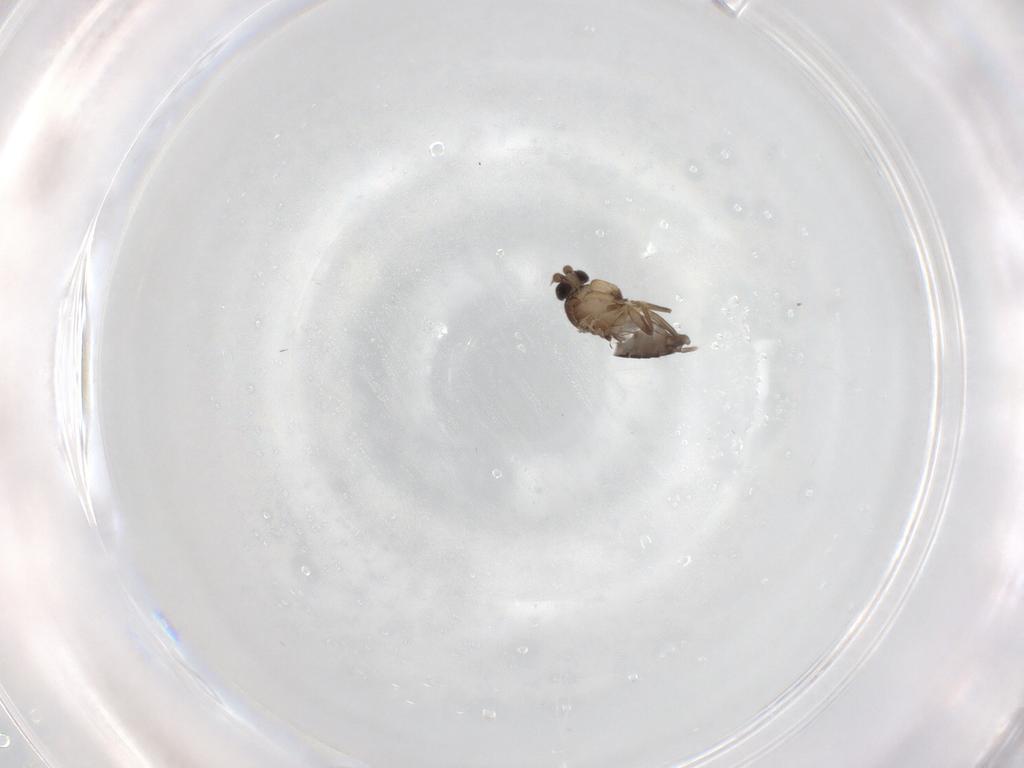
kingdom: Animalia
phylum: Arthropoda
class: Insecta
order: Diptera
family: Phoridae
